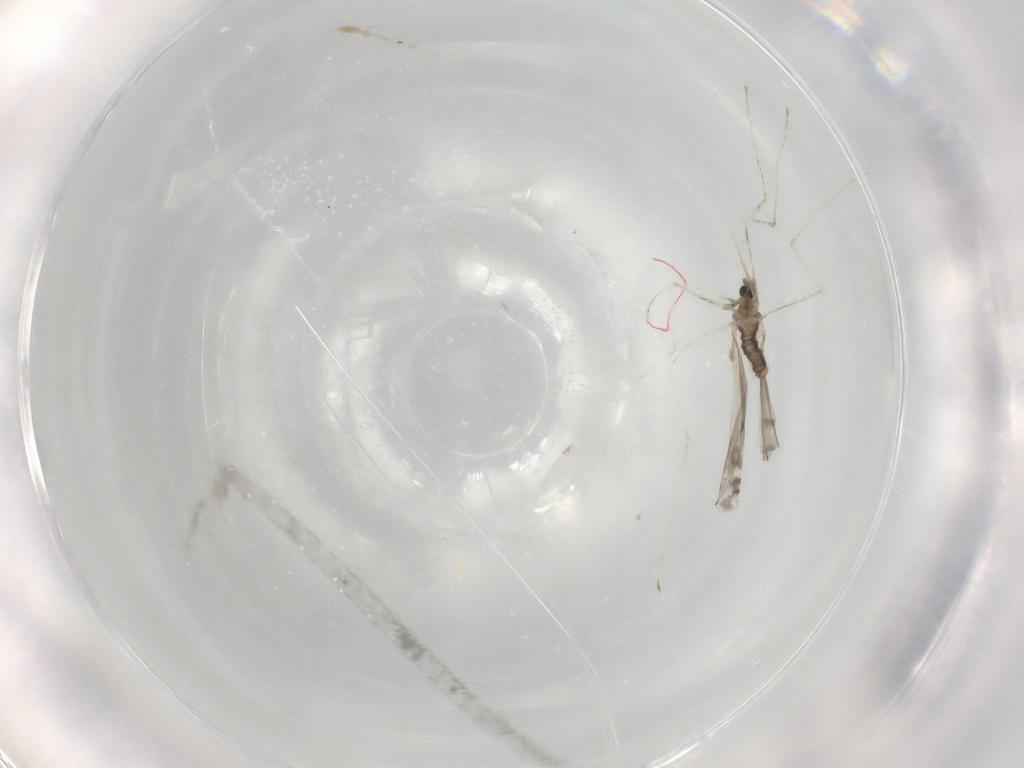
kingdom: Animalia
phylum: Arthropoda
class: Insecta
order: Diptera
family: Cecidomyiidae
